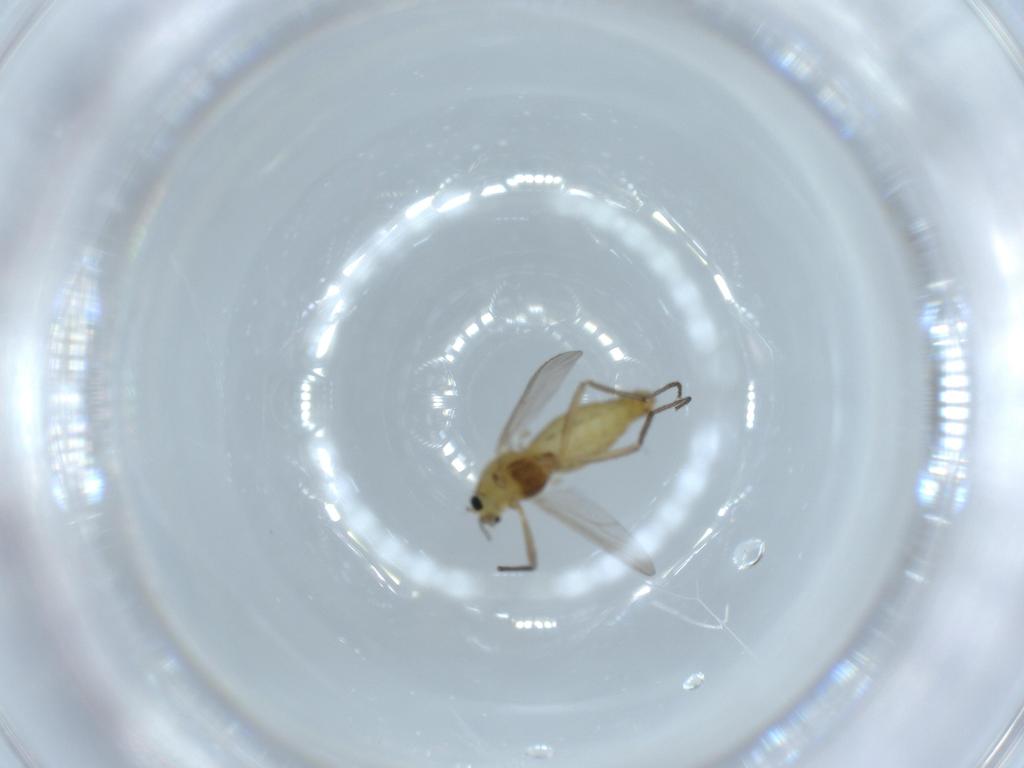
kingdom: Animalia
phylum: Arthropoda
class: Insecta
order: Diptera
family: Chironomidae
